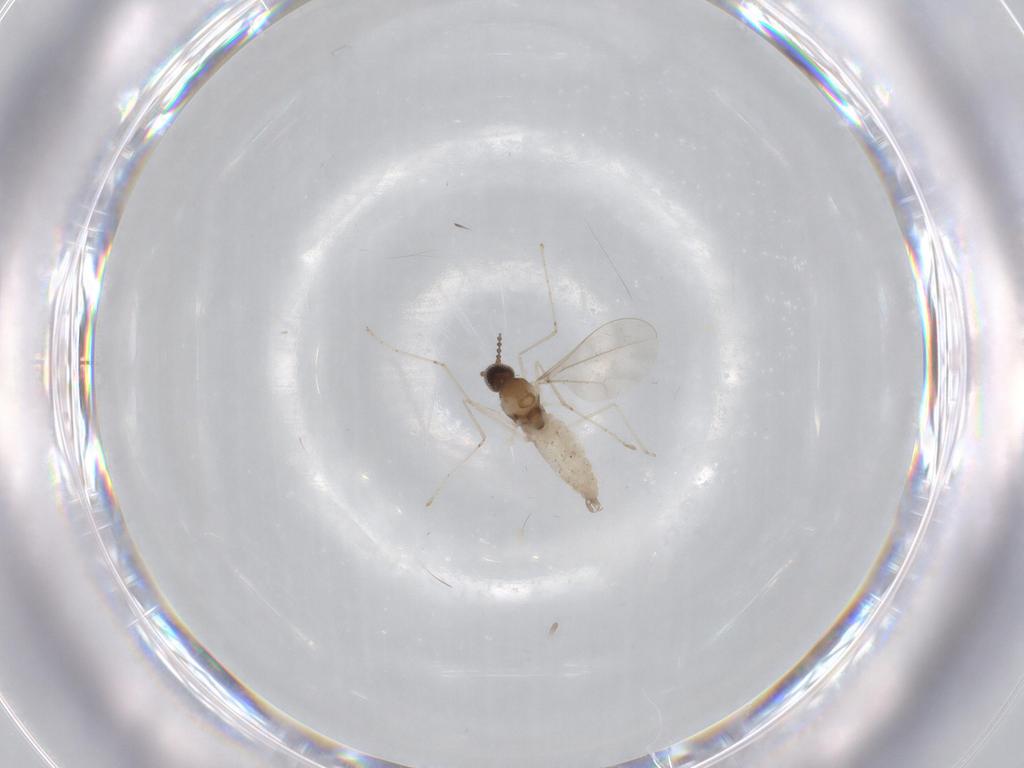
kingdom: Animalia
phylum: Arthropoda
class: Insecta
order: Diptera
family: Cecidomyiidae
